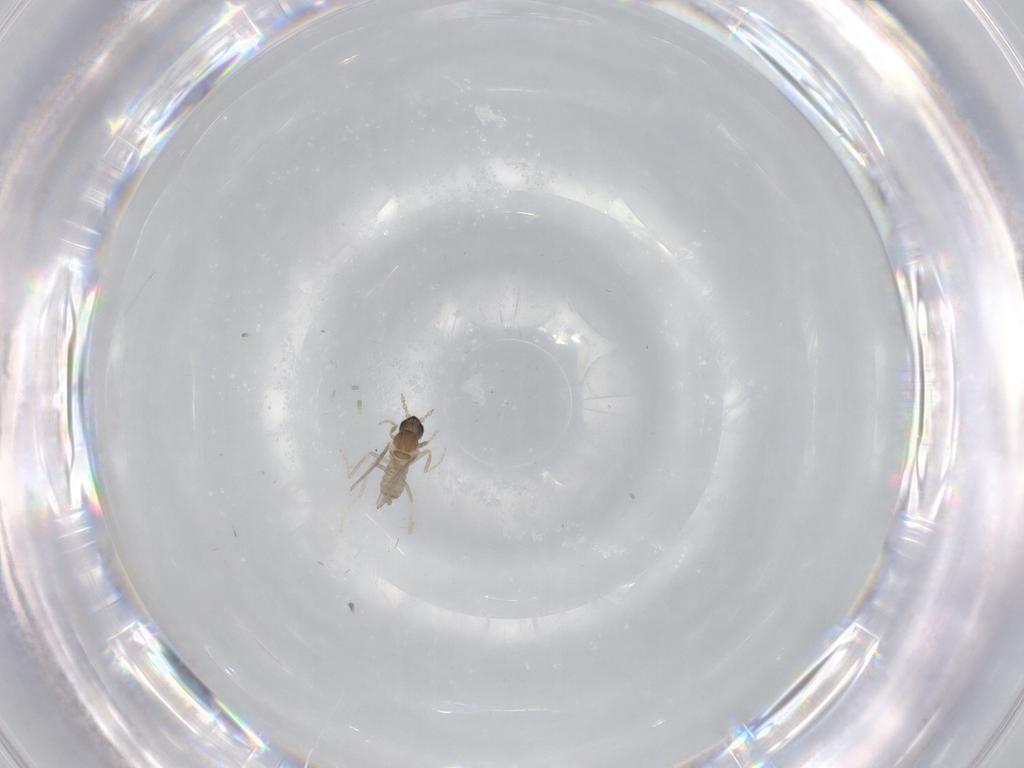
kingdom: Animalia
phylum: Arthropoda
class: Insecta
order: Diptera
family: Cecidomyiidae
